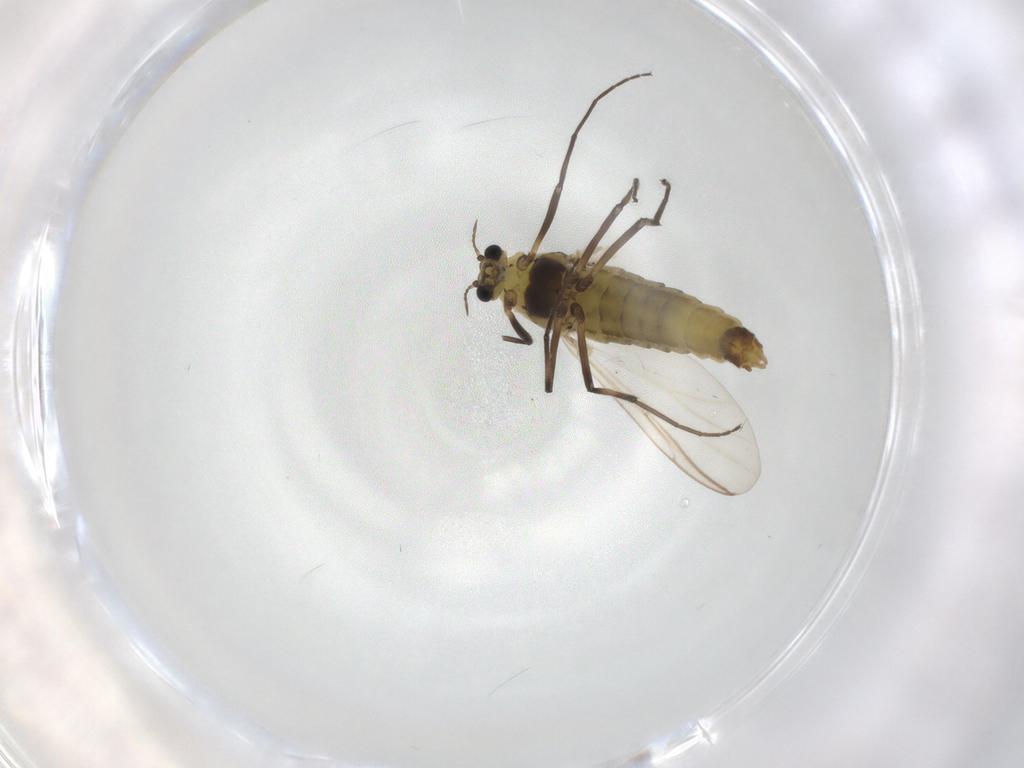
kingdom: Animalia
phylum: Arthropoda
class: Insecta
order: Diptera
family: Chironomidae
